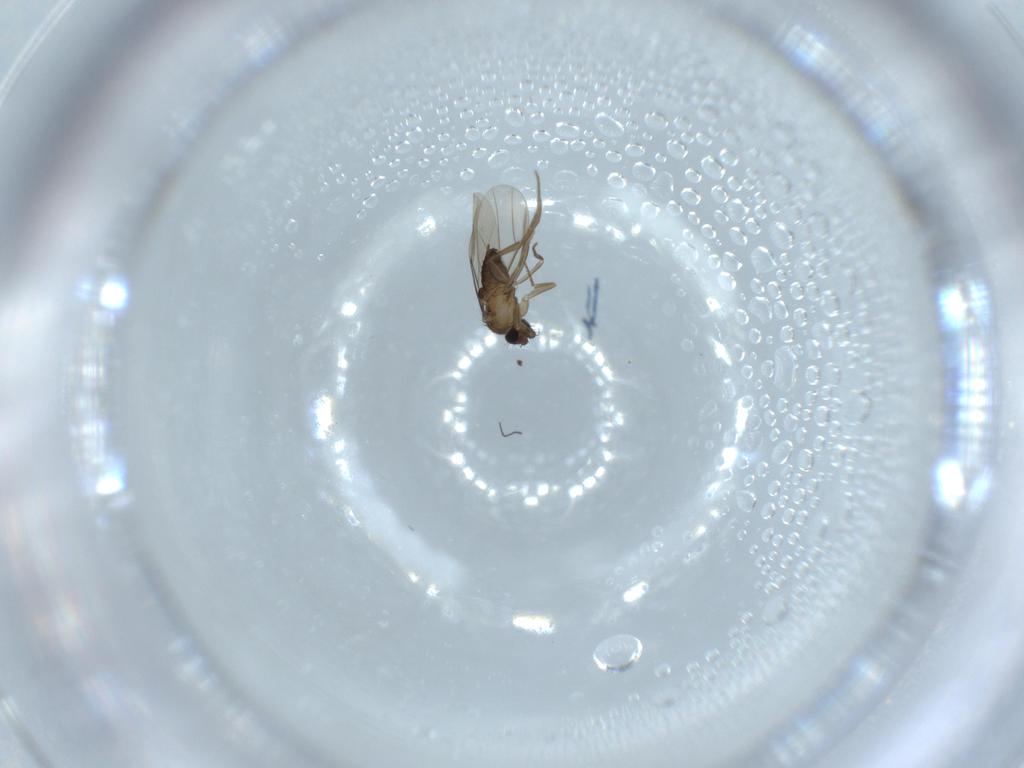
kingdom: Animalia
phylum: Arthropoda
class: Insecta
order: Diptera
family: Phoridae
